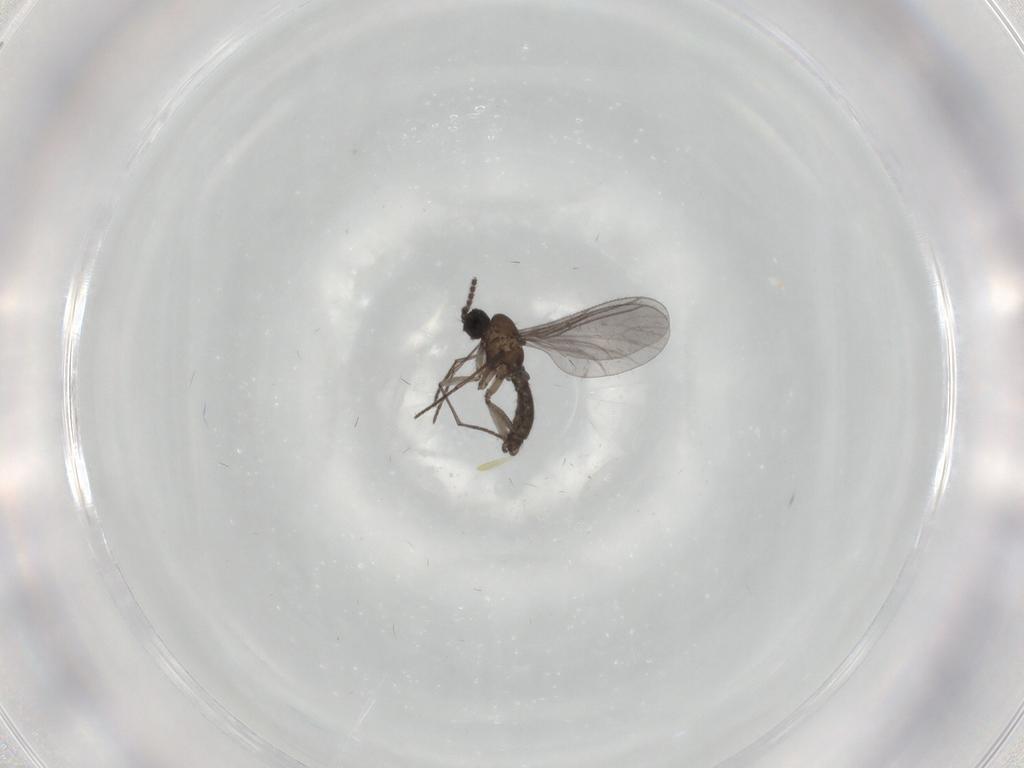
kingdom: Animalia
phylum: Arthropoda
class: Insecta
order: Diptera
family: Sciaridae
